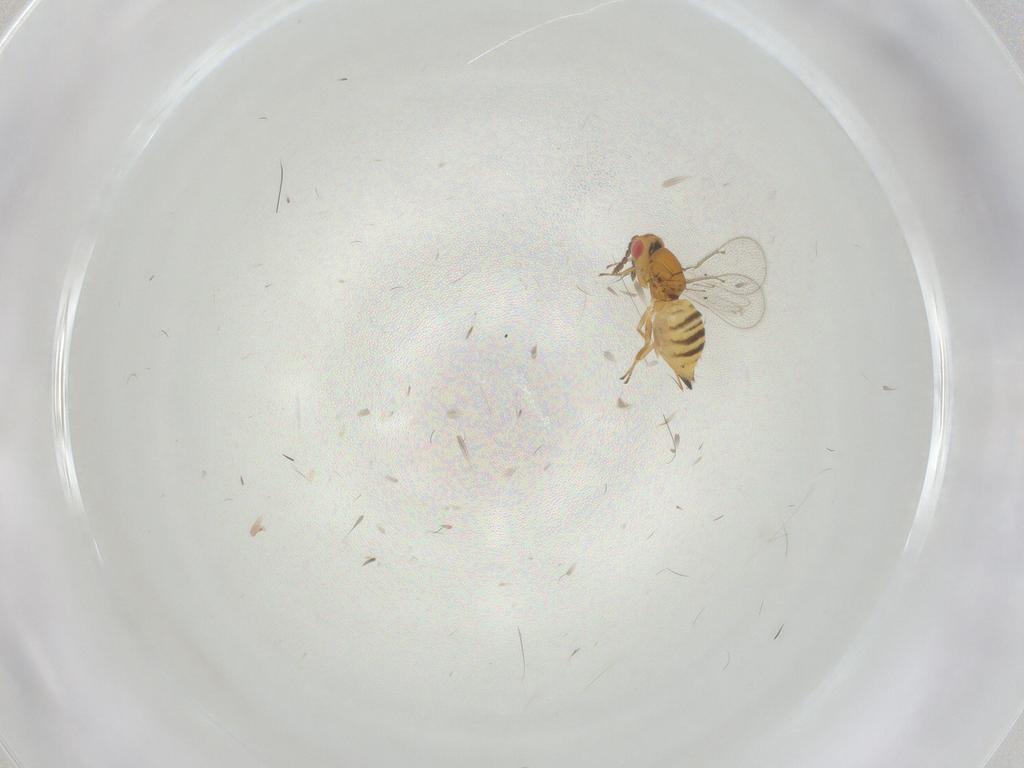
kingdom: Animalia
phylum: Arthropoda
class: Insecta
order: Hymenoptera
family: Eulophidae
